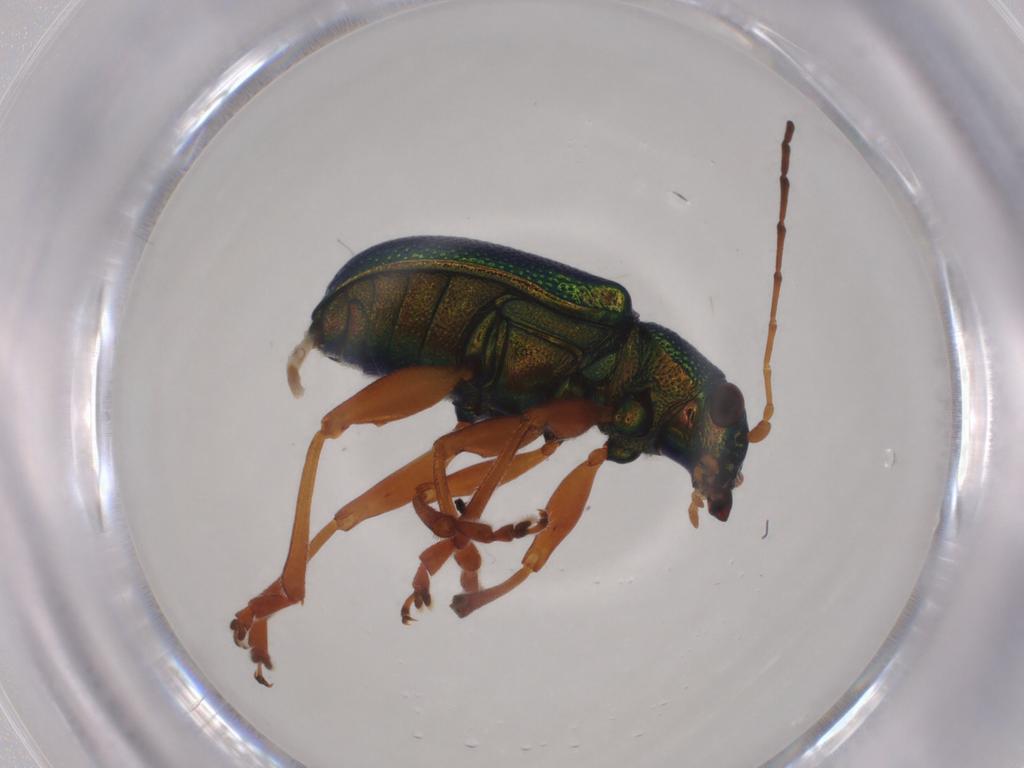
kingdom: Animalia
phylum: Arthropoda
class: Insecta
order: Coleoptera
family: Chrysomelidae
